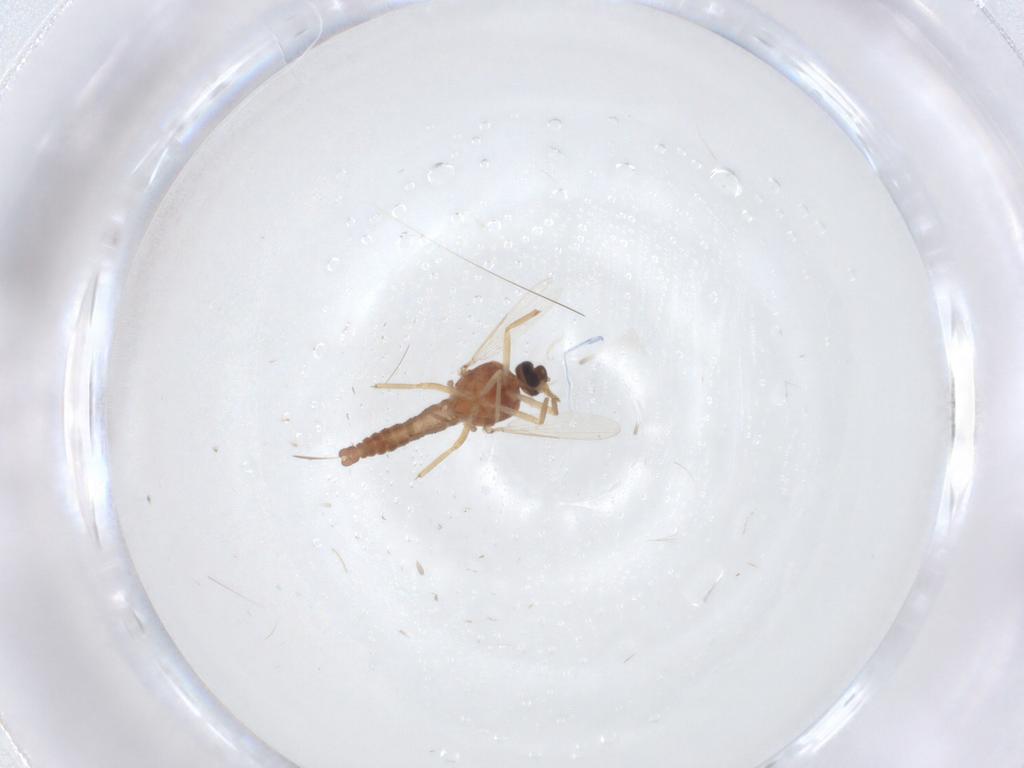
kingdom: Animalia
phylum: Arthropoda
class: Insecta
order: Diptera
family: Ceratopogonidae
